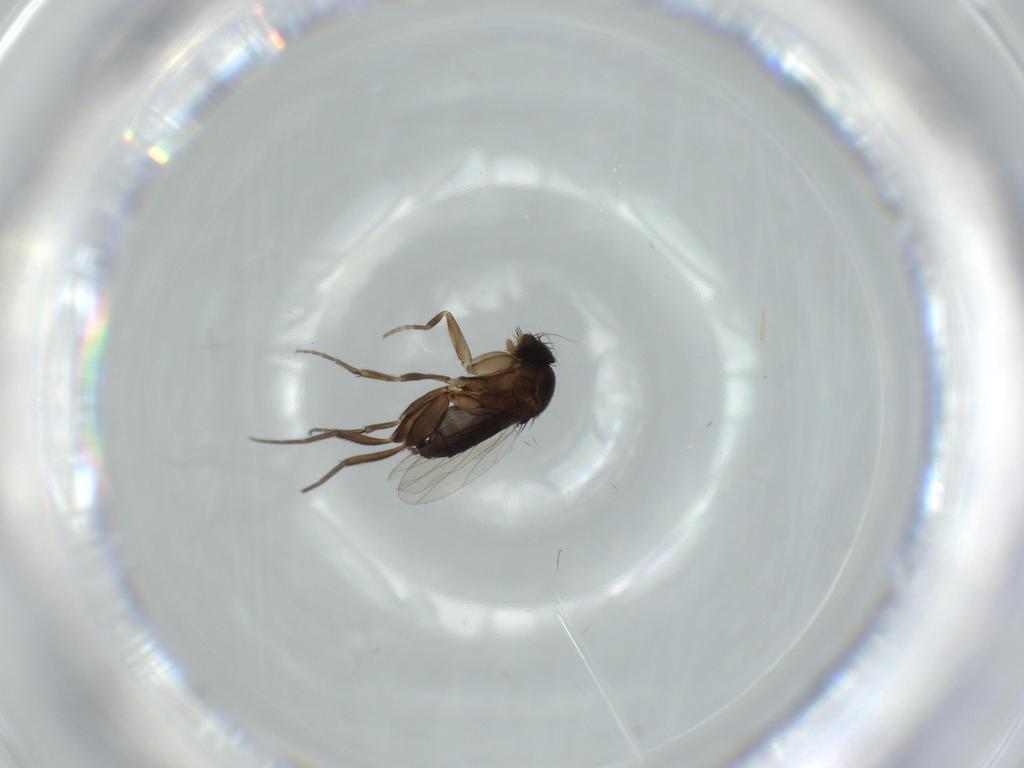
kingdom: Animalia
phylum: Arthropoda
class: Insecta
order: Diptera
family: Phoridae
